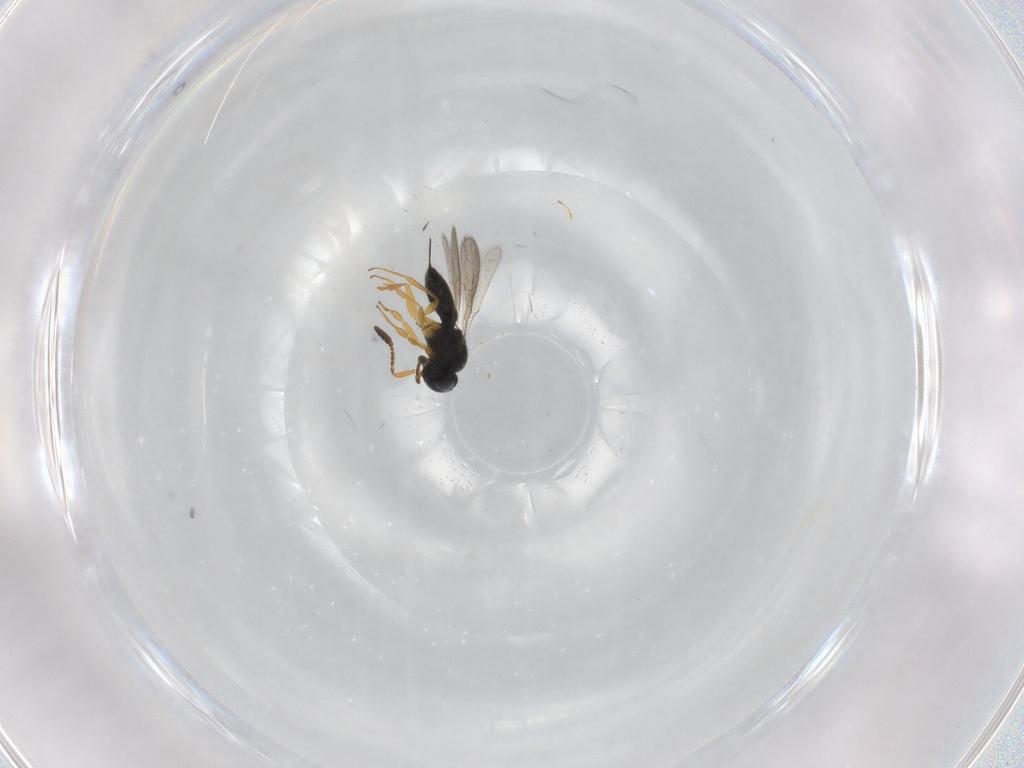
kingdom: Animalia
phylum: Arthropoda
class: Insecta
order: Hymenoptera
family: Scelionidae
